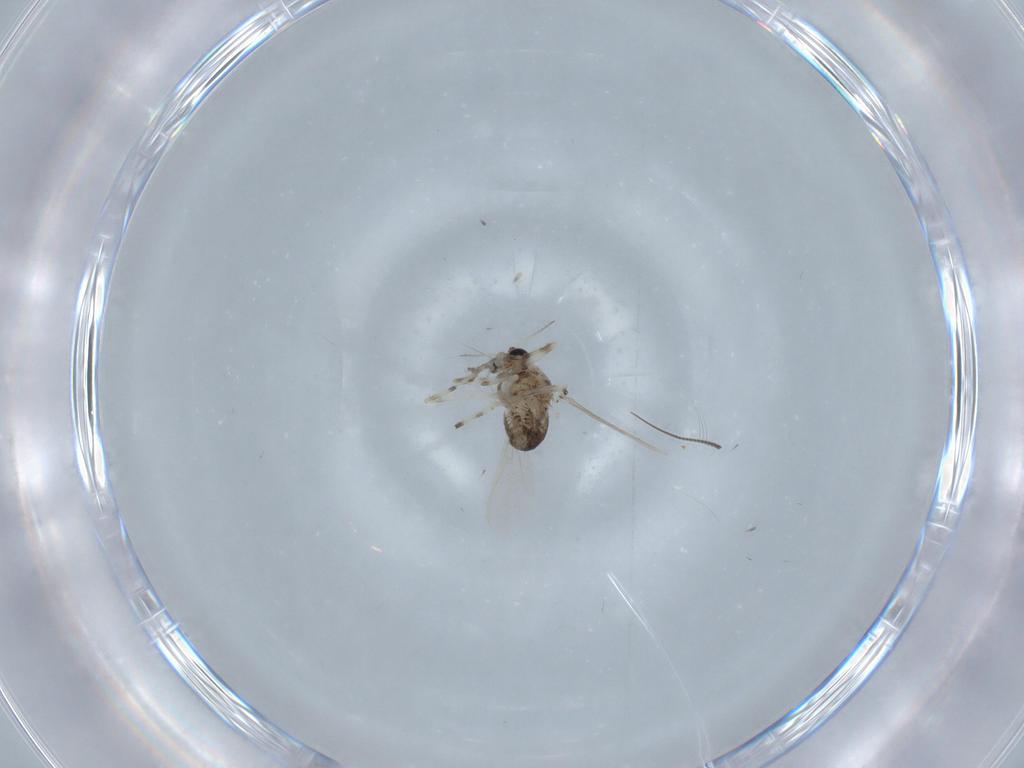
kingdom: Animalia
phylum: Arthropoda
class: Insecta
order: Diptera
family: Chironomidae
